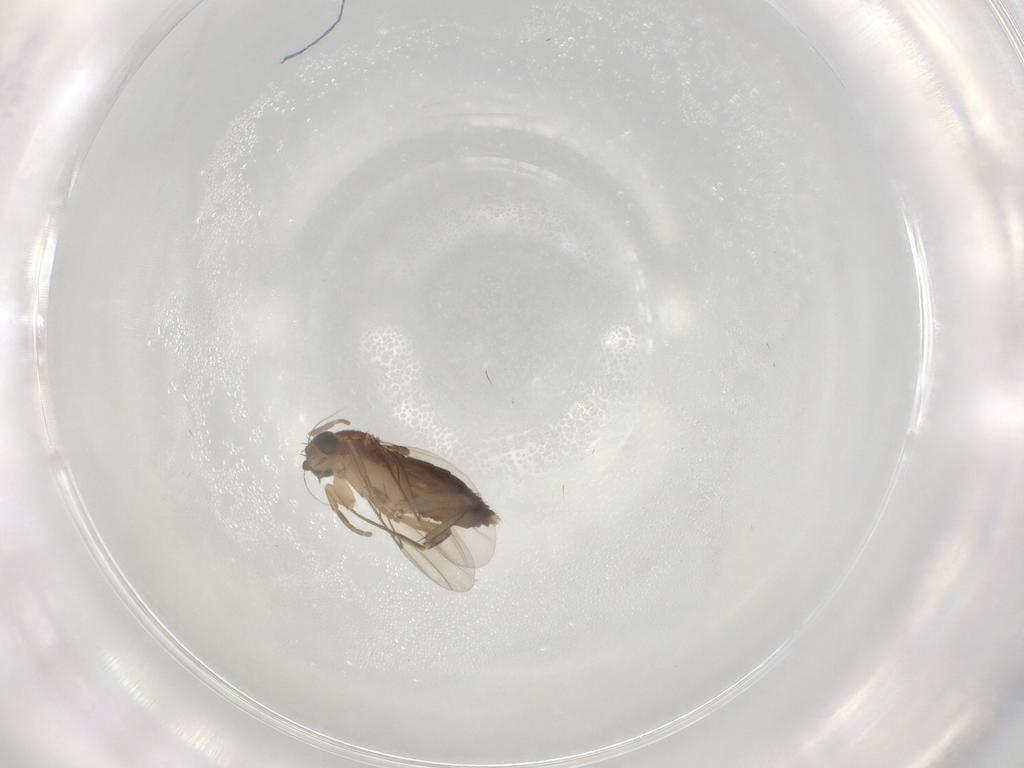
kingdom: Animalia
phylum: Arthropoda
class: Insecta
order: Diptera
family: Phoridae
